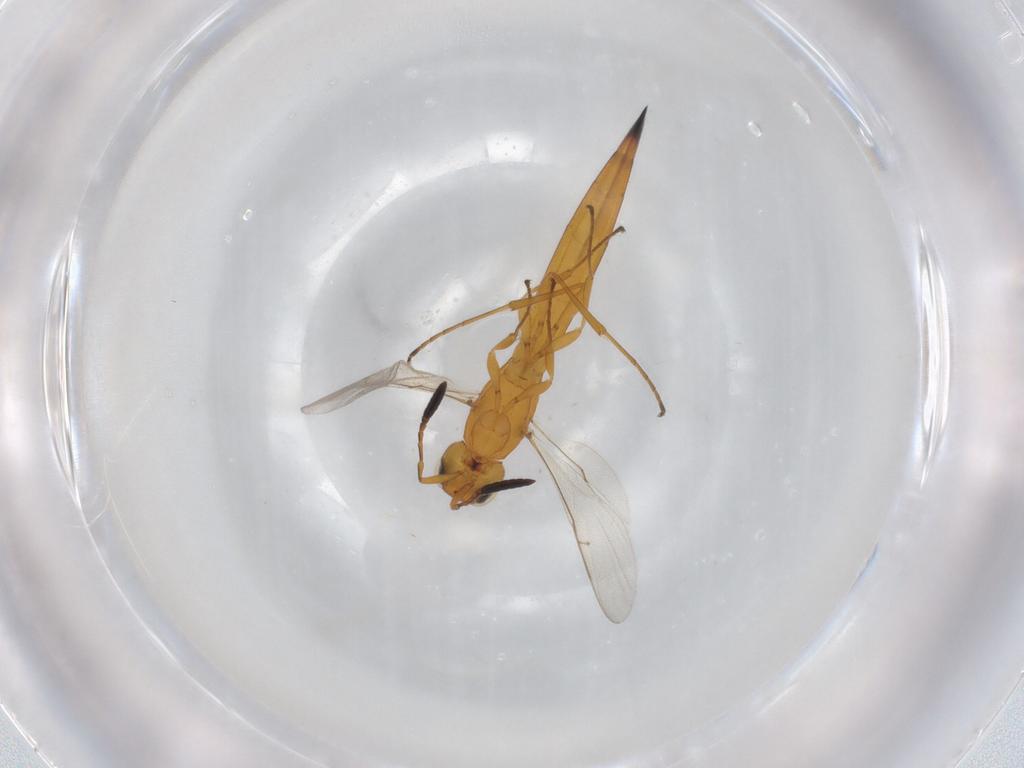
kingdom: Animalia
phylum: Arthropoda
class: Insecta
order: Hymenoptera
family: Scelionidae
